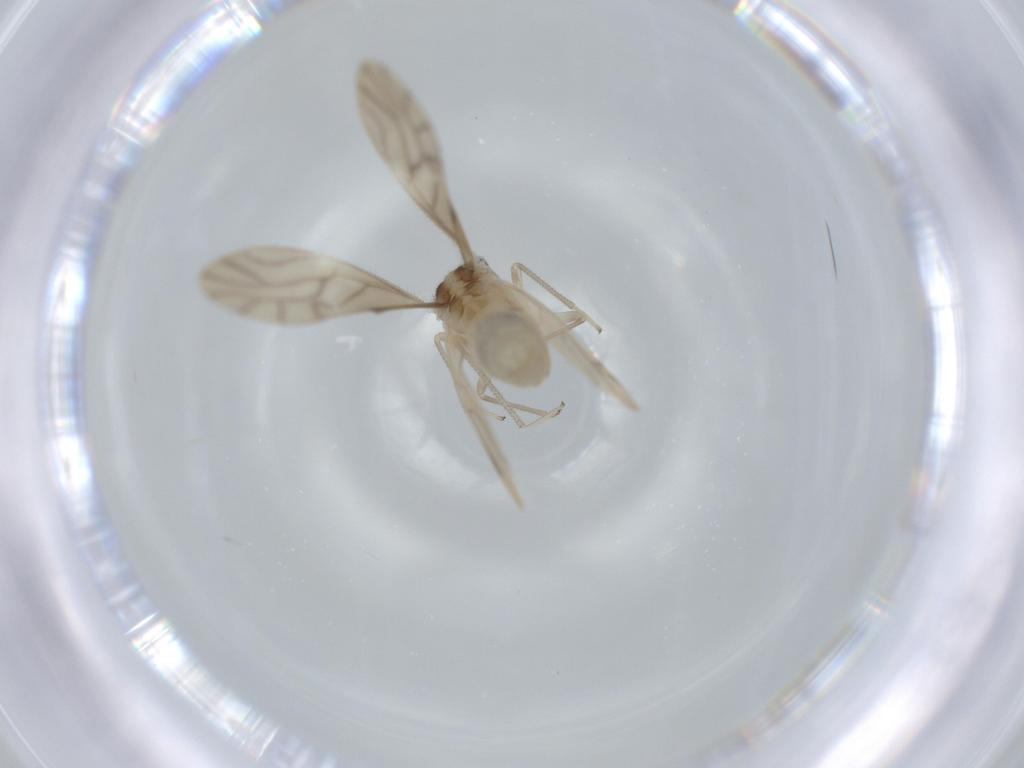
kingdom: Animalia
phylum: Arthropoda
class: Insecta
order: Psocodea
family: Caeciliusidae
